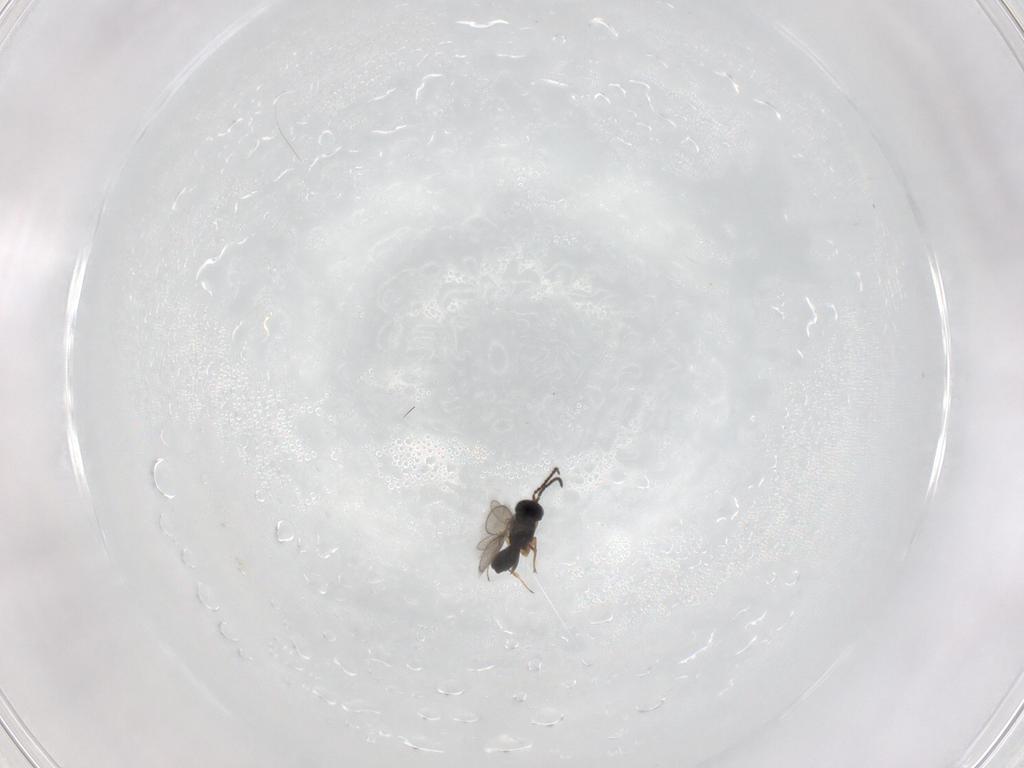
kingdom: Animalia
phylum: Arthropoda
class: Insecta
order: Hymenoptera
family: Scelionidae
